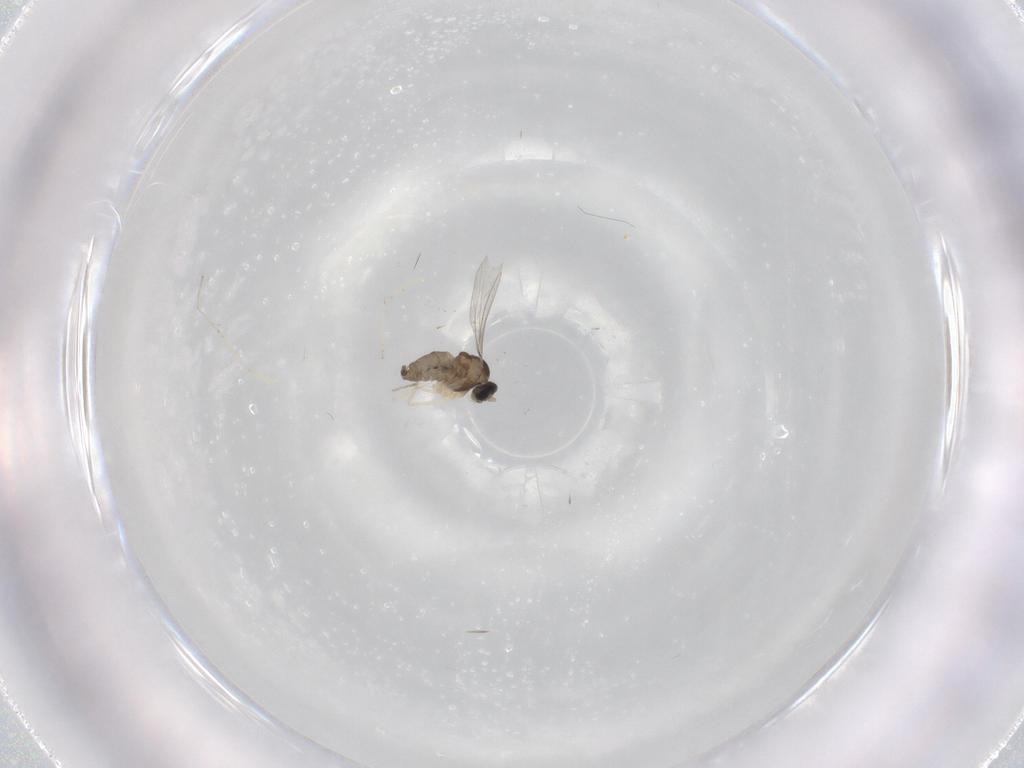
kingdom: Animalia
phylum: Arthropoda
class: Insecta
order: Diptera
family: Cecidomyiidae
